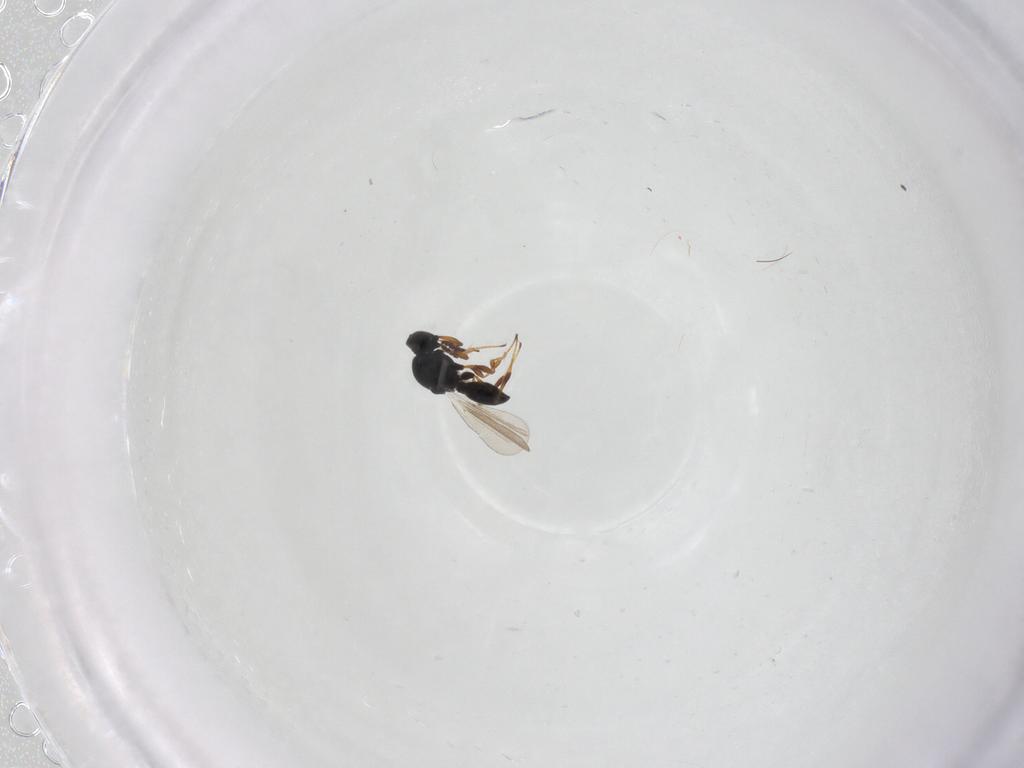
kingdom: Animalia
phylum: Arthropoda
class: Insecta
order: Hymenoptera
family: Platygastridae
